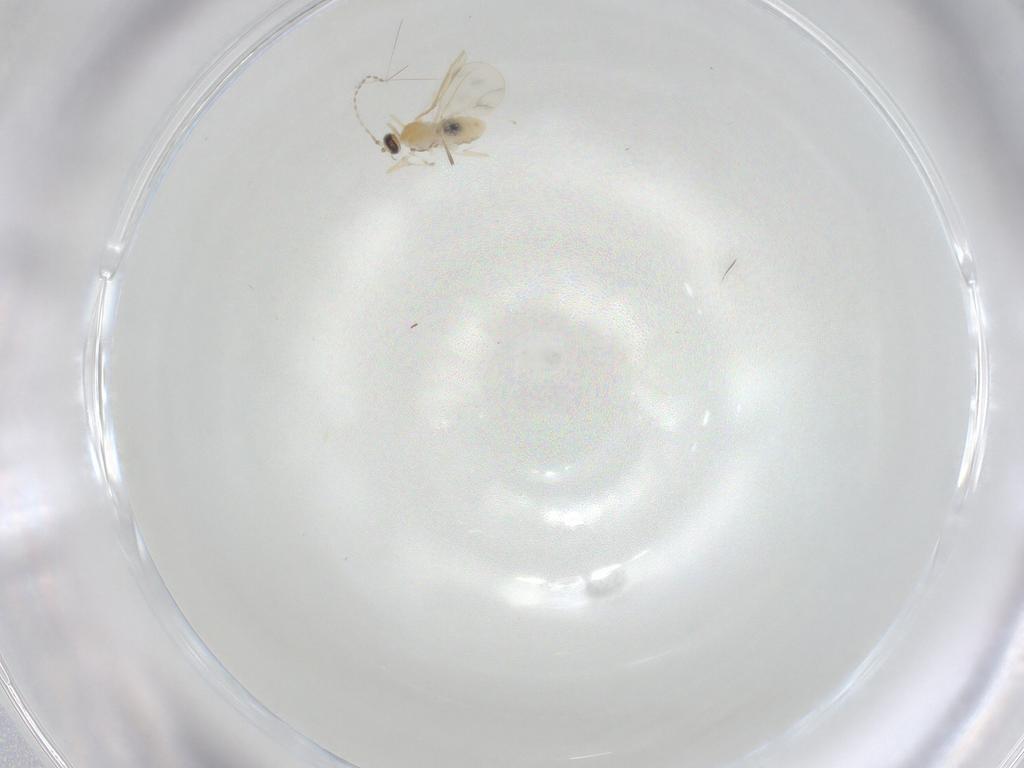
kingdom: Animalia
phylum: Arthropoda
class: Insecta
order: Diptera
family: Cecidomyiidae
